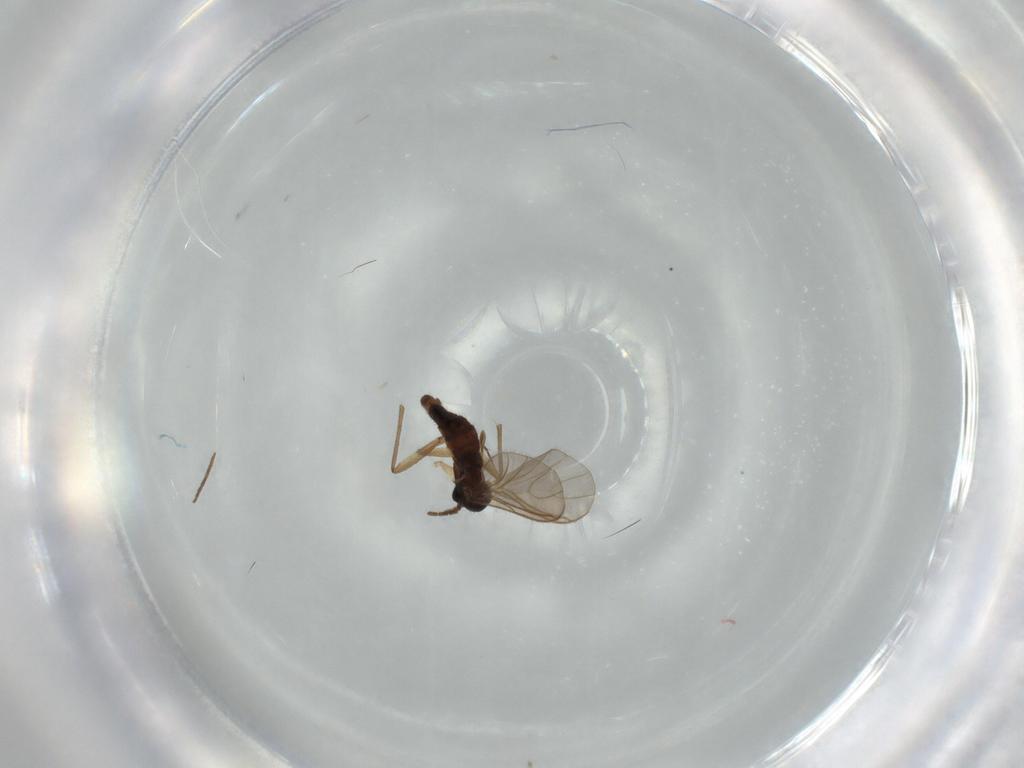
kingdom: Animalia
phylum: Arthropoda
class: Insecta
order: Diptera
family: Sciaridae
